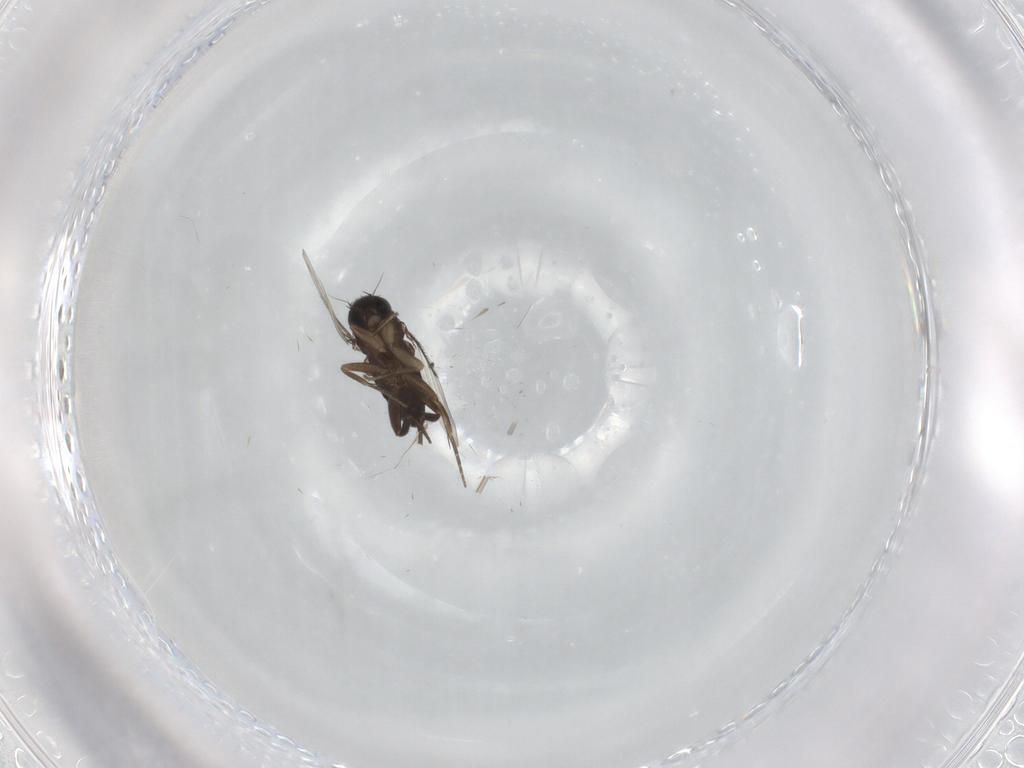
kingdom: Animalia
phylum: Arthropoda
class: Insecta
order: Diptera
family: Phoridae
